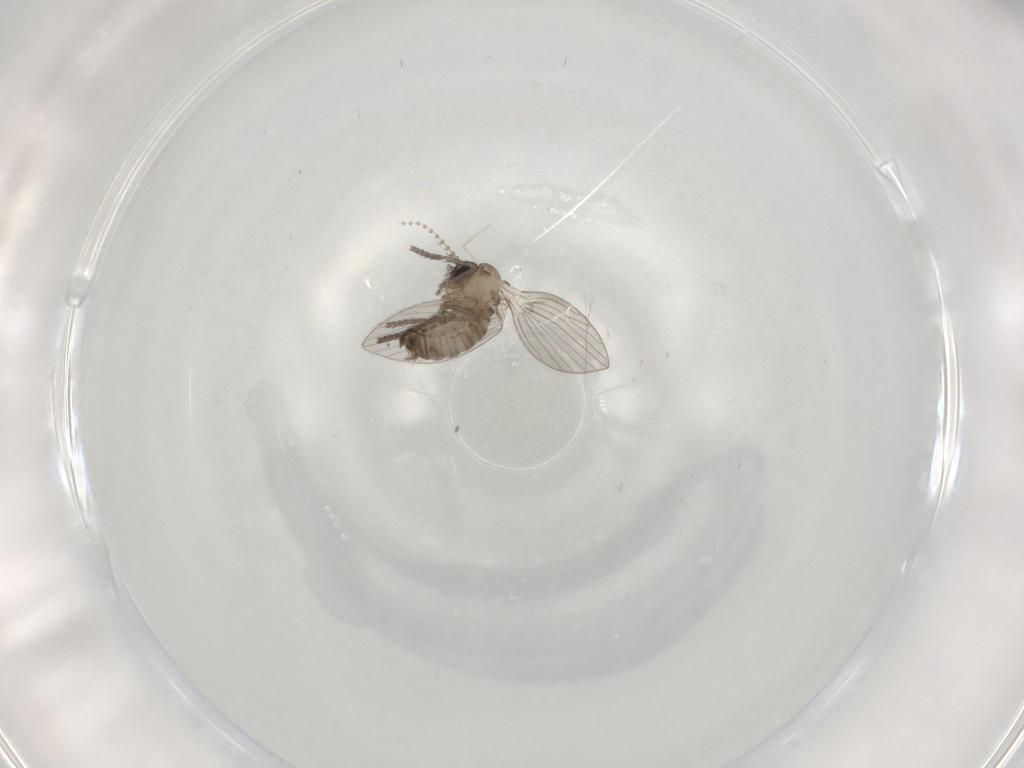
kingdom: Animalia
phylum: Arthropoda
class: Insecta
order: Diptera
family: Psychodidae
